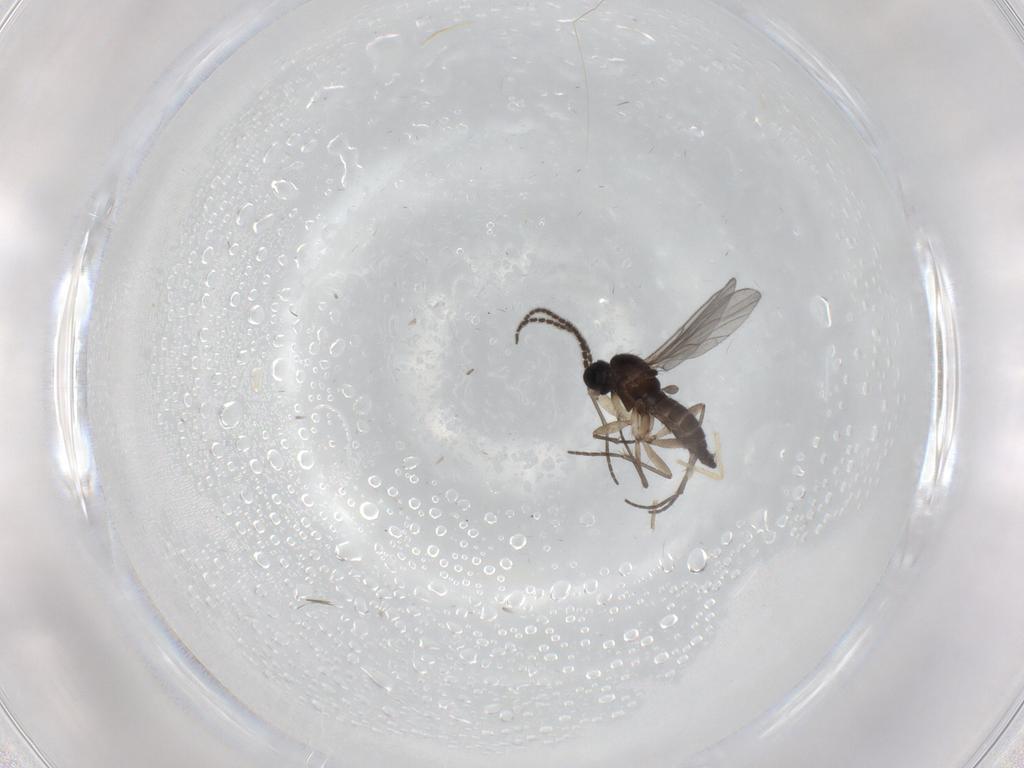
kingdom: Animalia
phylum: Arthropoda
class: Insecta
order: Diptera
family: Sciaridae
